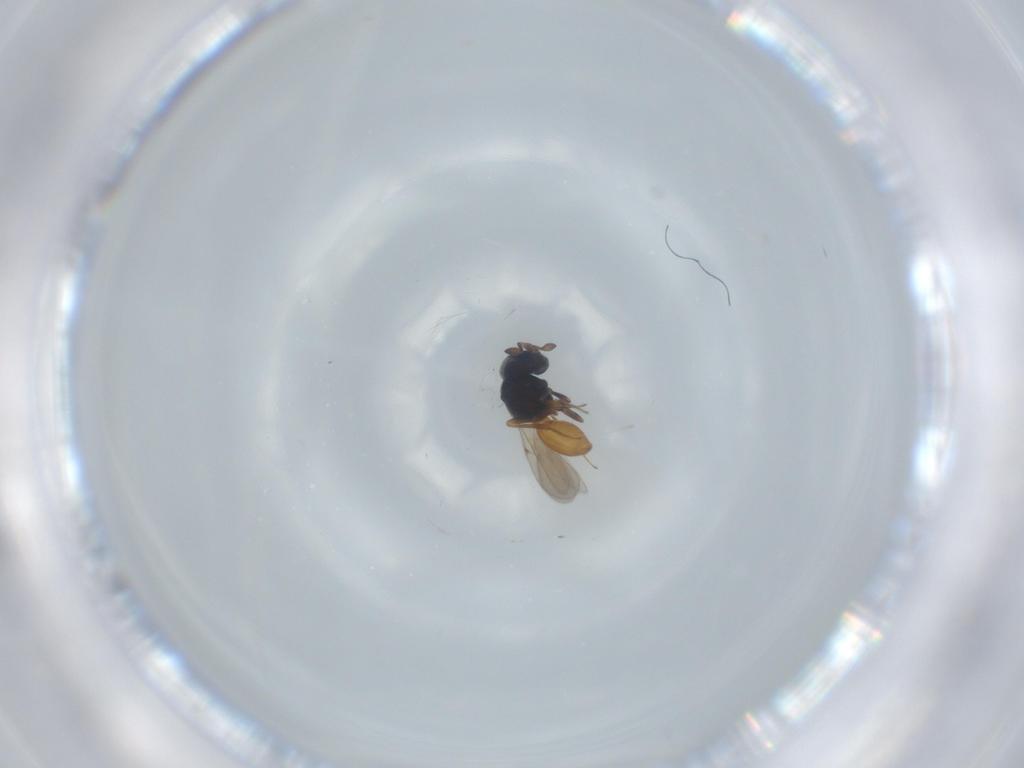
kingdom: Animalia
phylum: Arthropoda
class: Insecta
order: Hymenoptera
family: Scelionidae
